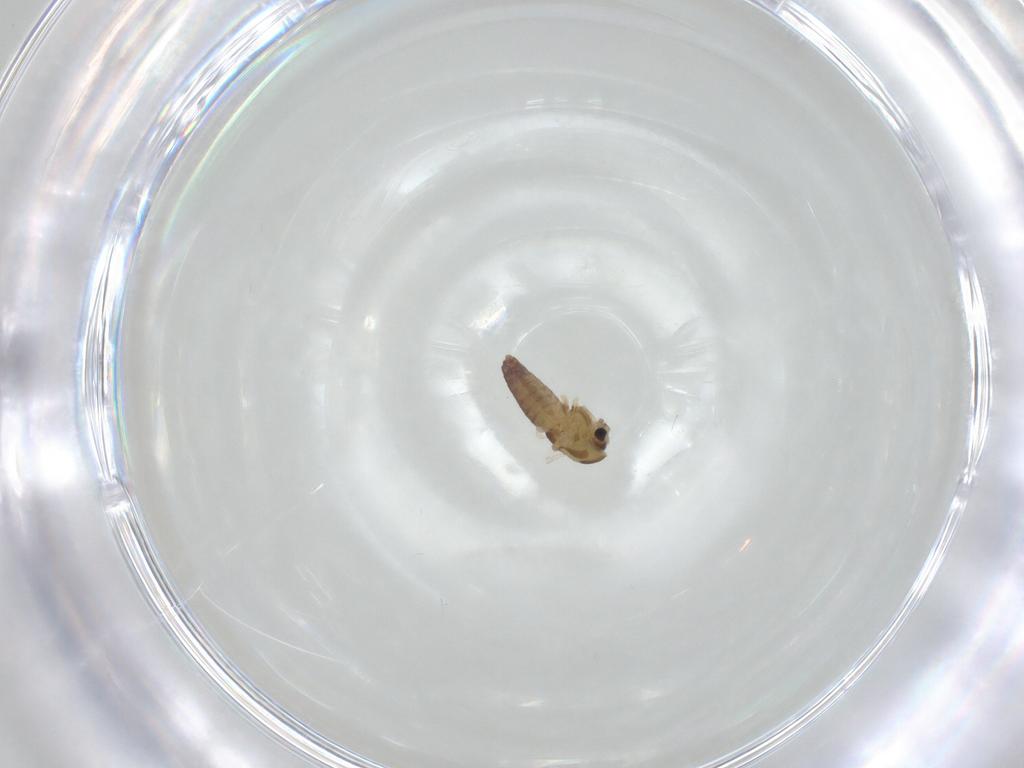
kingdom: Animalia
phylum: Arthropoda
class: Insecta
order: Diptera
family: Chironomidae
